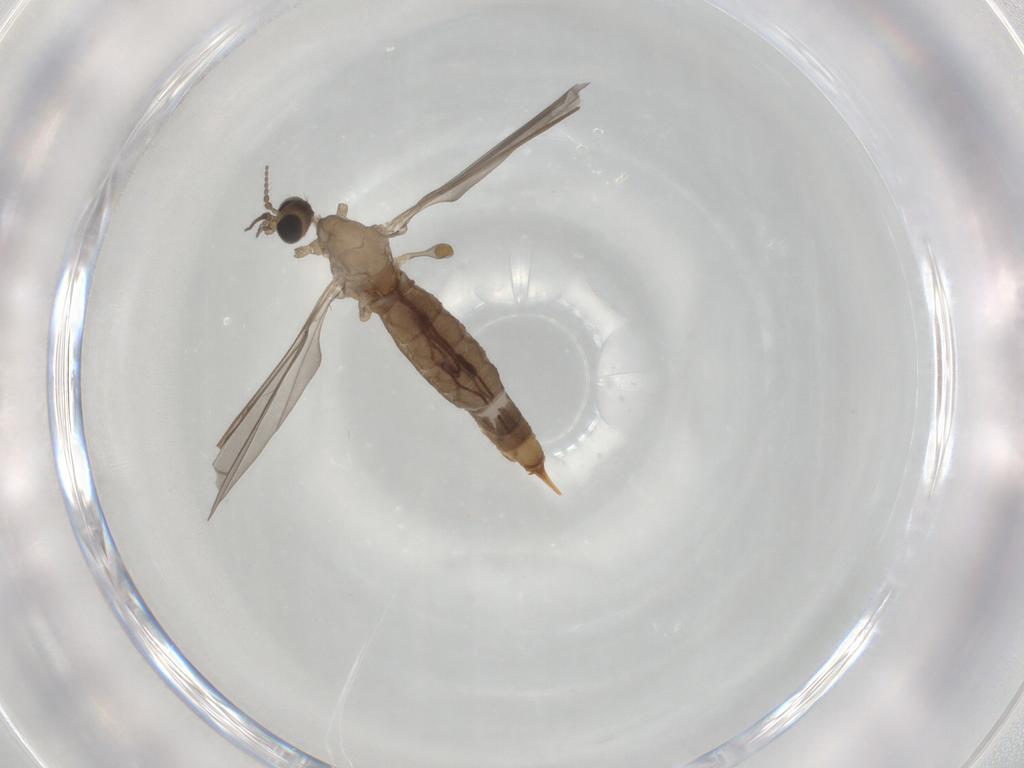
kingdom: Animalia
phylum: Arthropoda
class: Insecta
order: Diptera
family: Limoniidae
